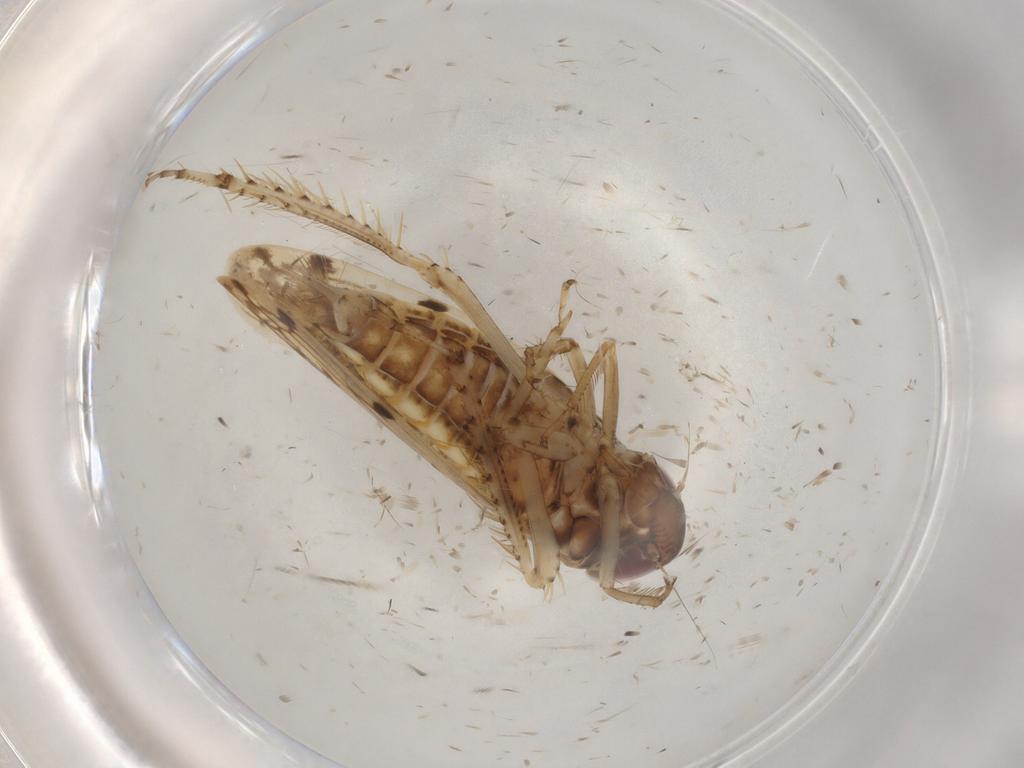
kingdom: Animalia
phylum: Arthropoda
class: Insecta
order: Hemiptera
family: Cicadellidae
